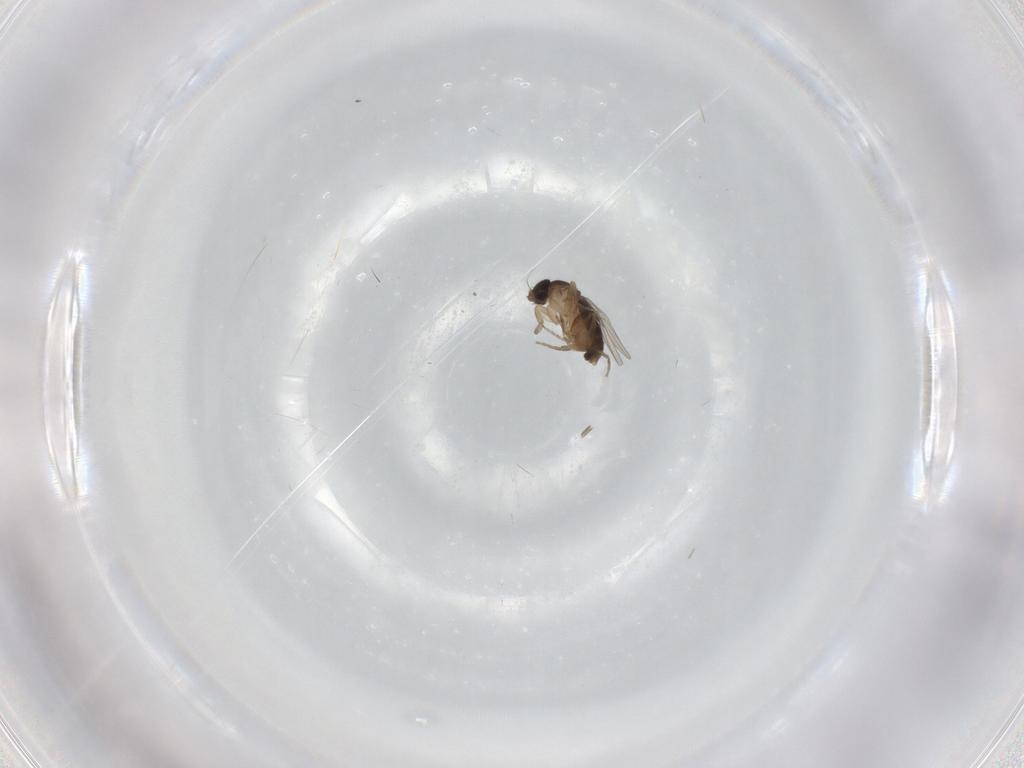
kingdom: Animalia
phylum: Arthropoda
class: Insecta
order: Diptera
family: Phoridae
